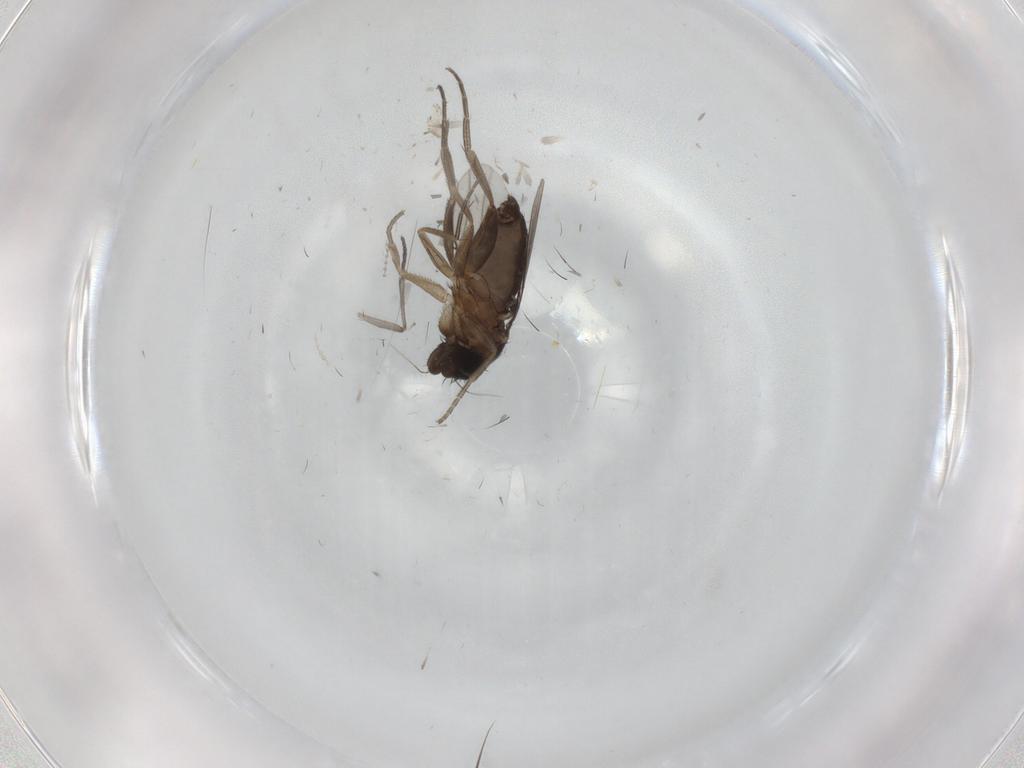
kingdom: Animalia
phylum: Arthropoda
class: Insecta
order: Diptera
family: Phoridae
